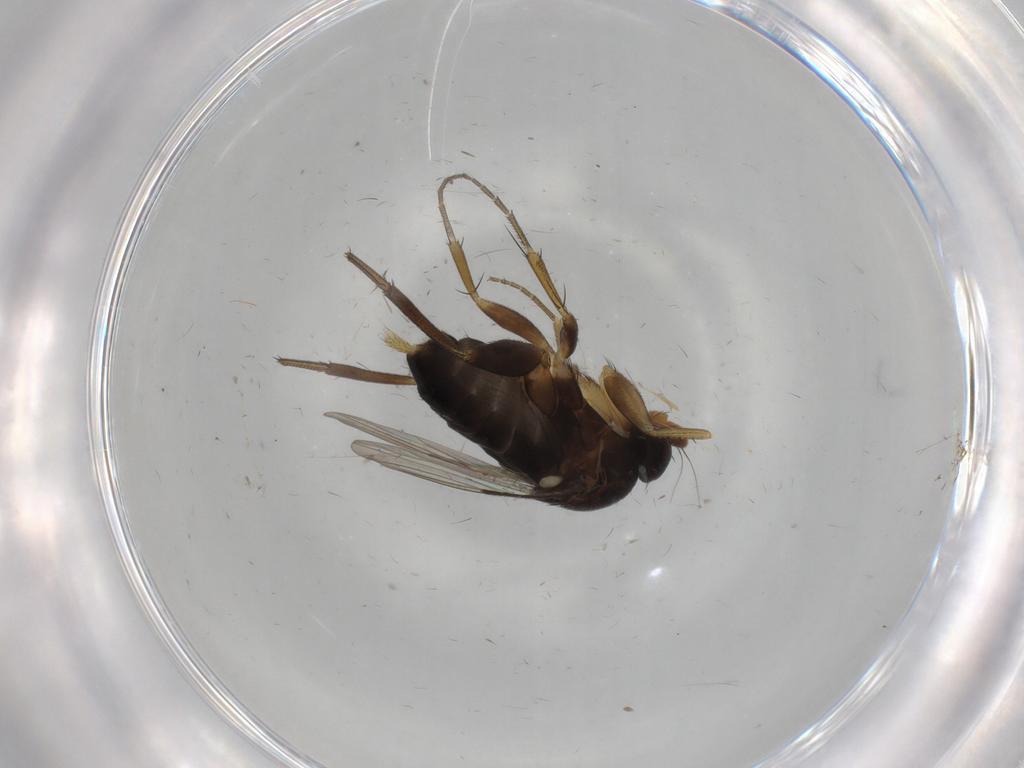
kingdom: Animalia
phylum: Arthropoda
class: Insecta
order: Diptera
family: Phoridae
